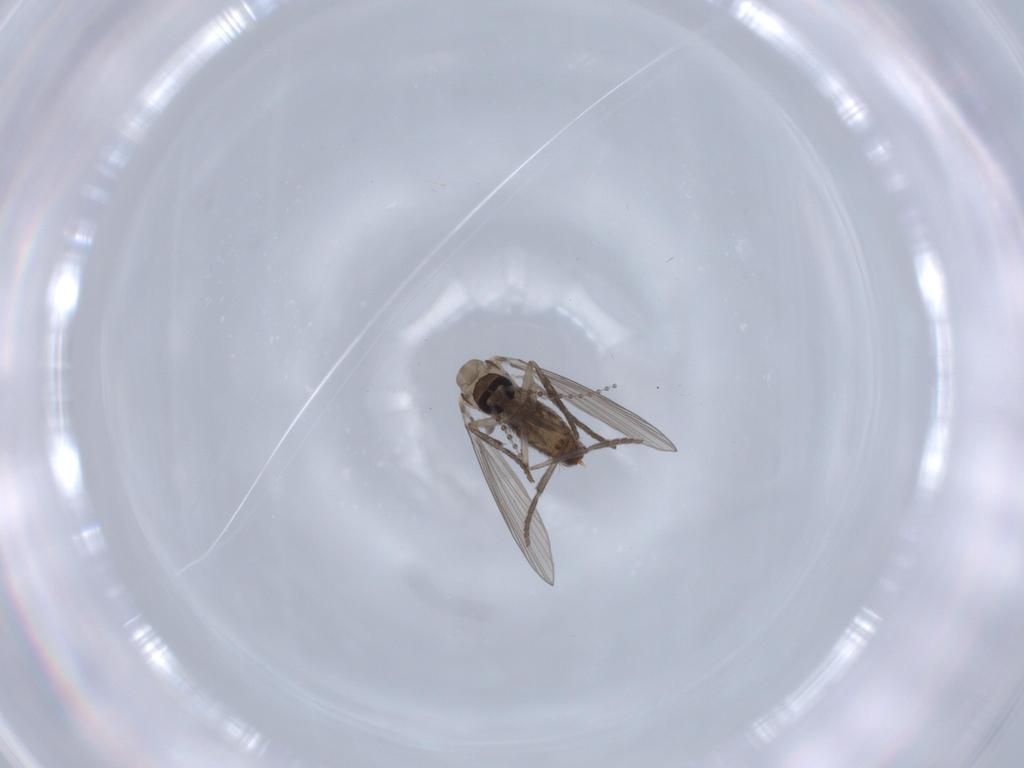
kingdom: Animalia
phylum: Arthropoda
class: Insecta
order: Diptera
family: Psychodidae
